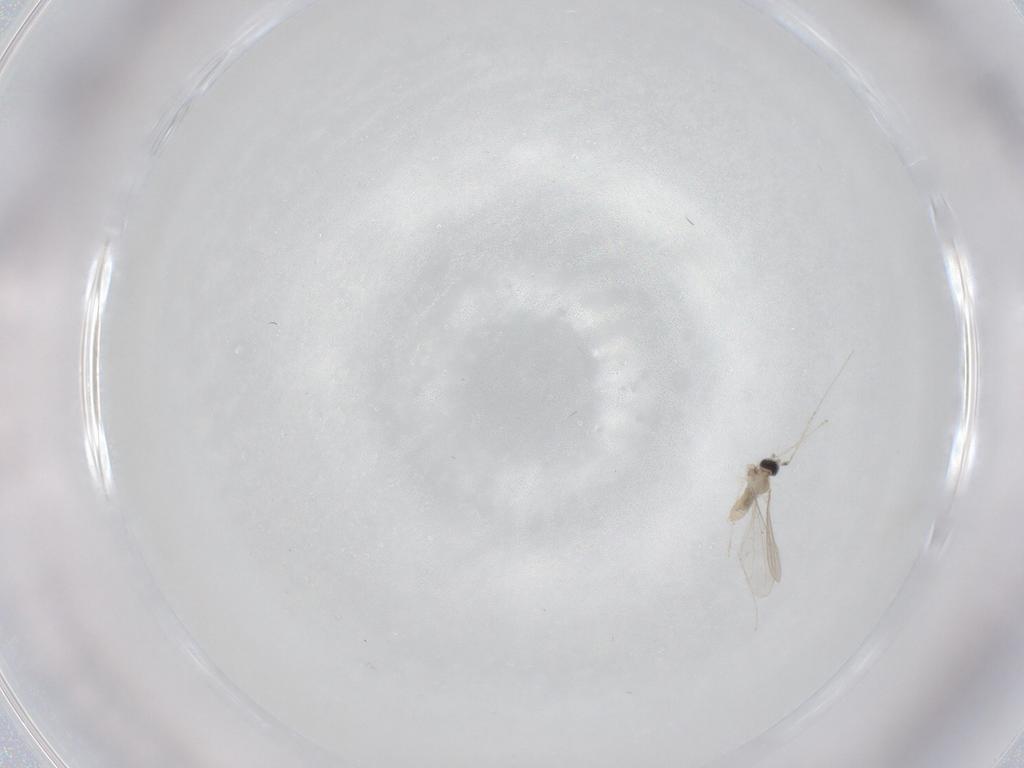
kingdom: Animalia
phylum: Arthropoda
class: Insecta
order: Diptera
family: Cecidomyiidae
